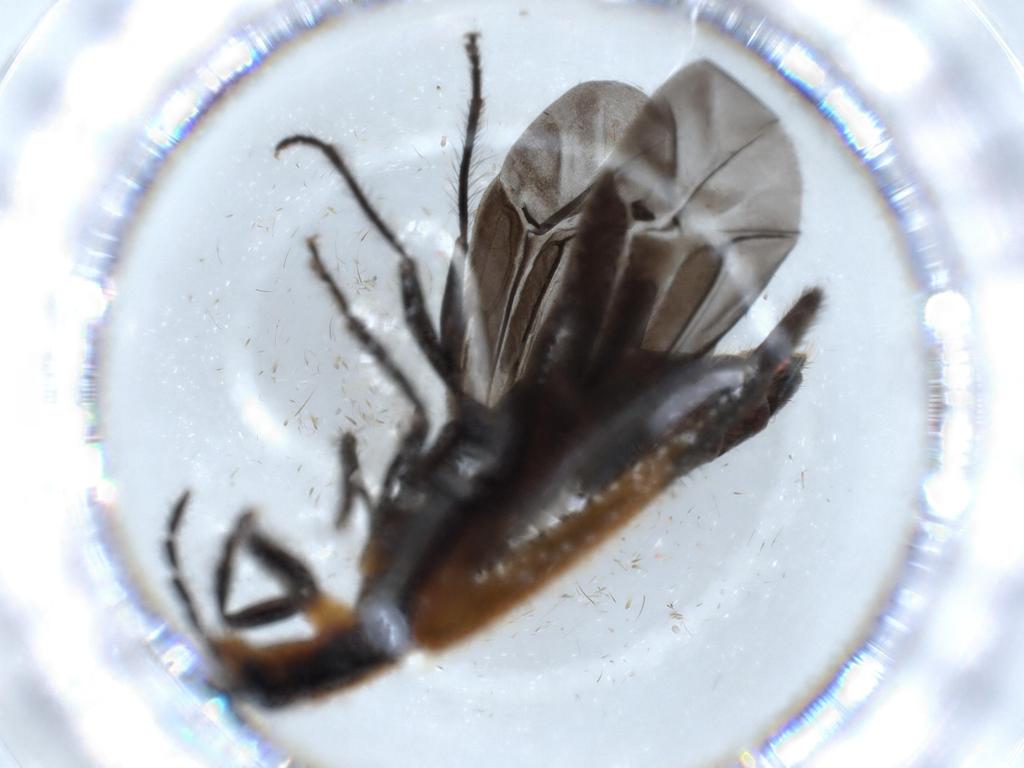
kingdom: Animalia
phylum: Arthropoda
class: Insecta
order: Coleoptera
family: Cleridae
